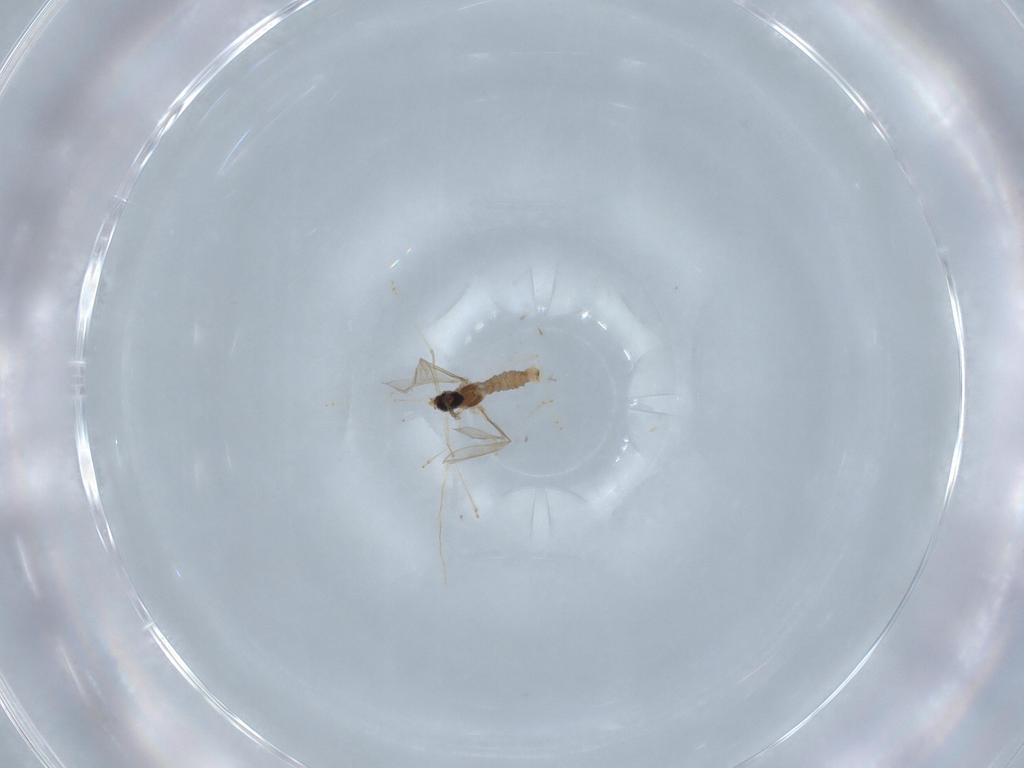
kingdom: Animalia
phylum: Arthropoda
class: Insecta
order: Diptera
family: Cecidomyiidae
